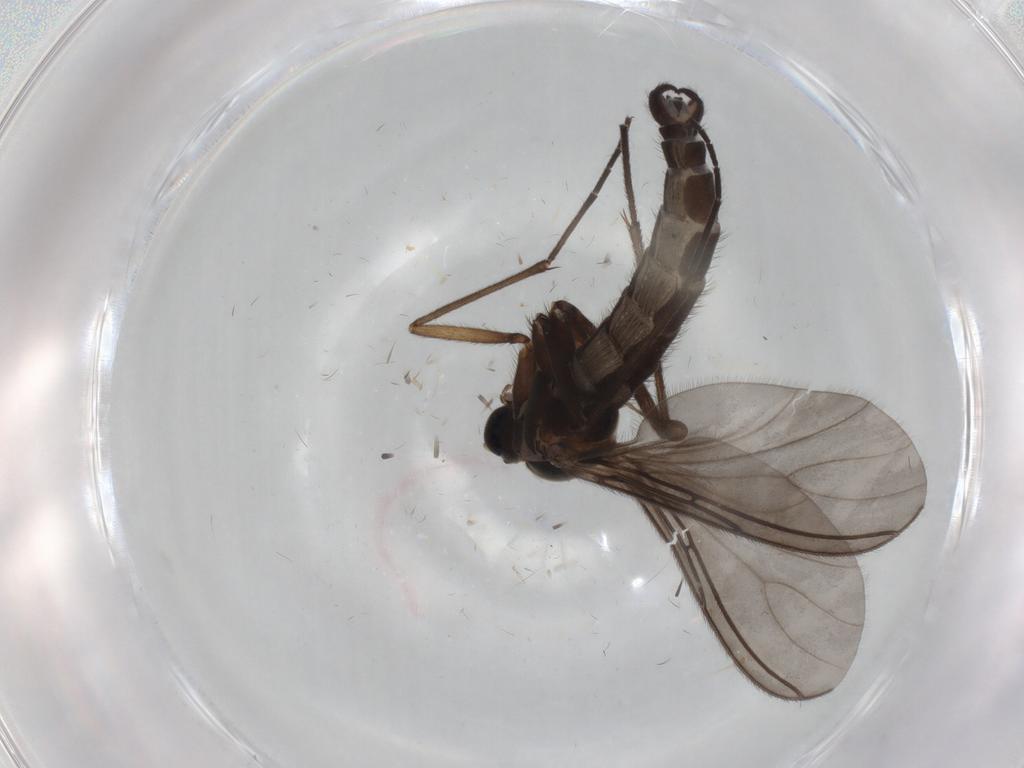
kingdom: Animalia
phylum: Arthropoda
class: Insecta
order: Diptera
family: Sciaridae
